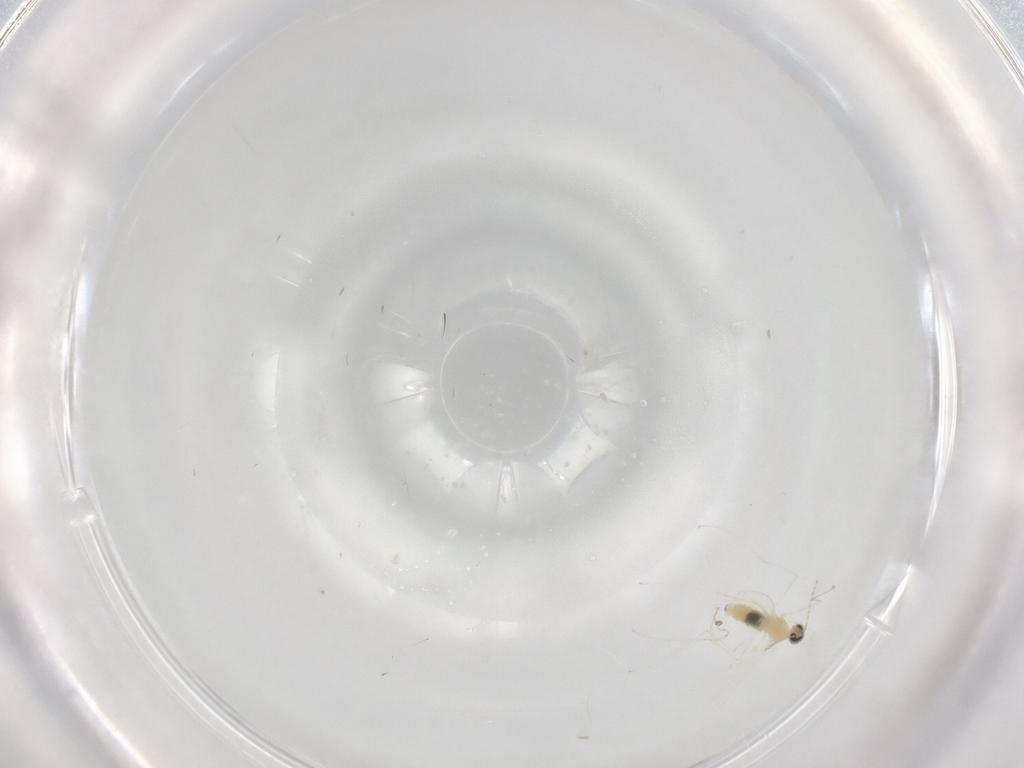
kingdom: Animalia
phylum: Arthropoda
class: Insecta
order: Diptera
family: Cecidomyiidae
